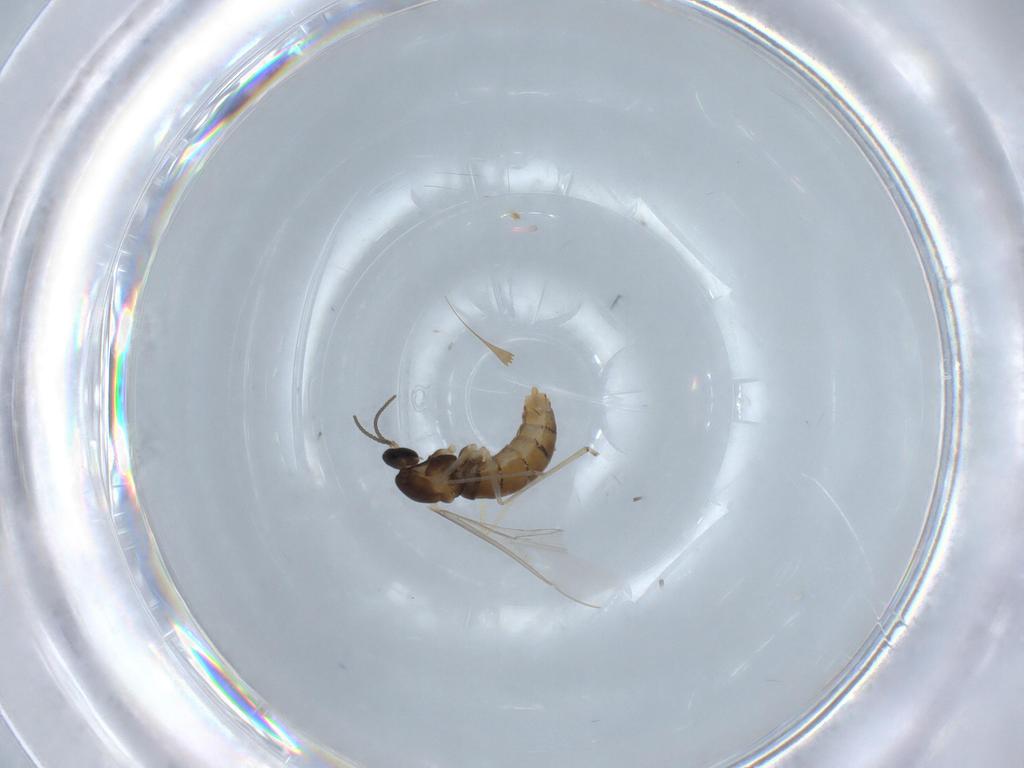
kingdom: Animalia
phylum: Arthropoda
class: Insecta
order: Diptera
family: Cecidomyiidae
